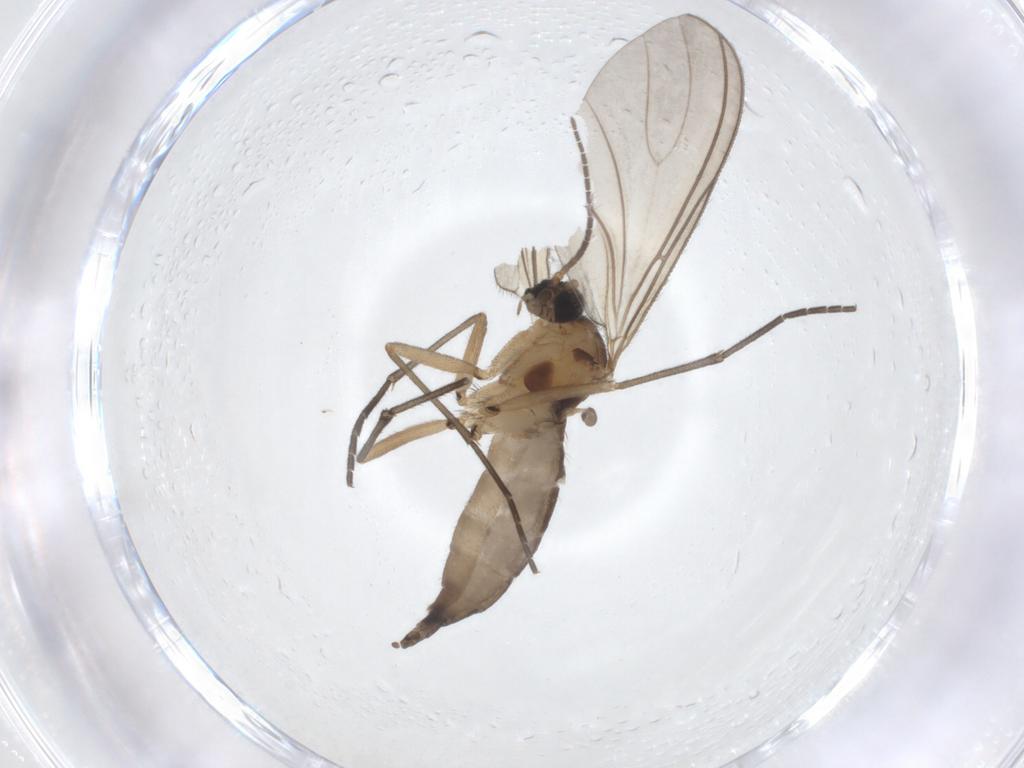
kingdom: Animalia
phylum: Arthropoda
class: Insecta
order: Diptera
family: Sciaridae
